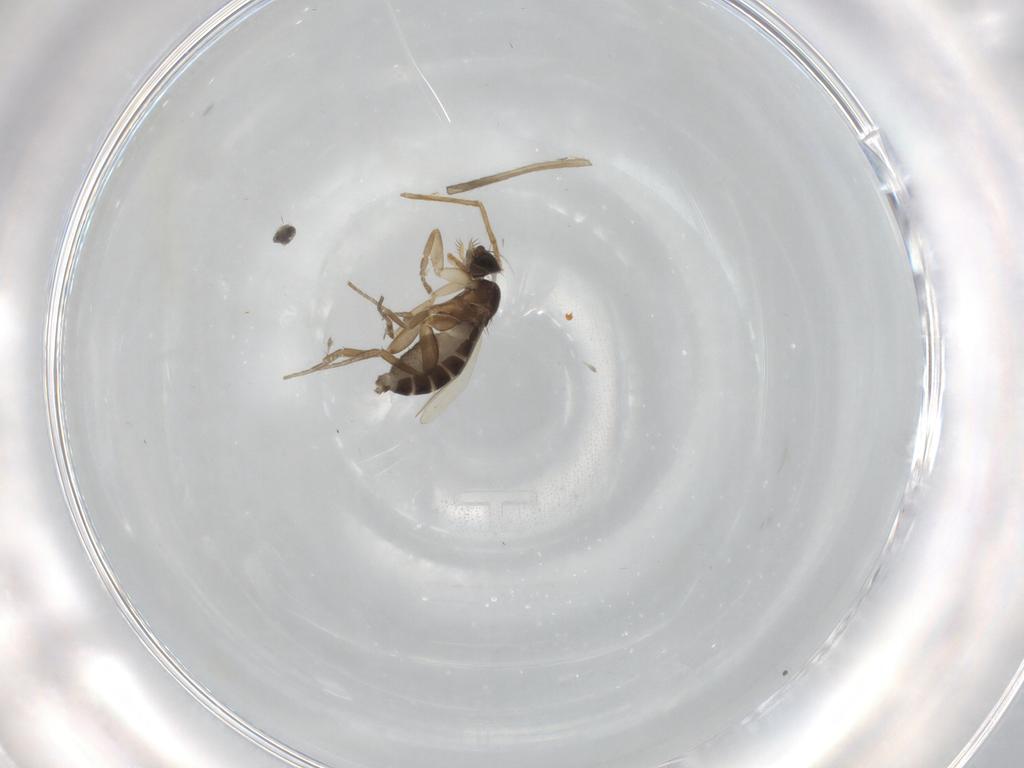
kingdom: Animalia
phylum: Arthropoda
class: Insecta
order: Diptera
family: Phoridae
